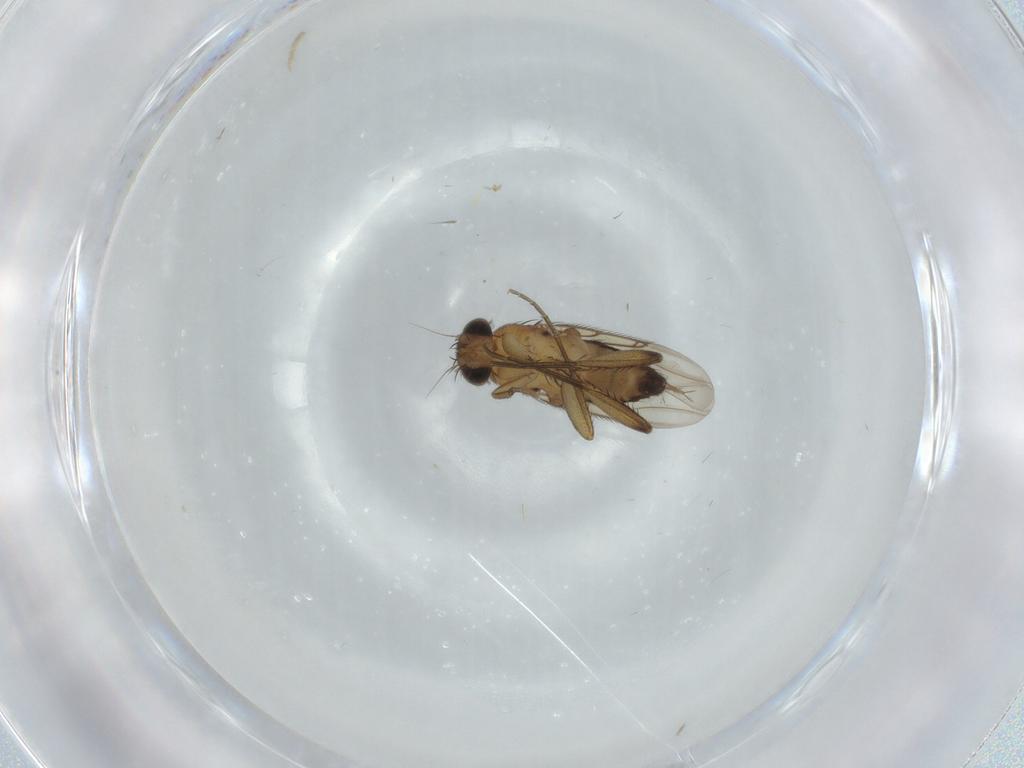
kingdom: Animalia
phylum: Arthropoda
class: Insecta
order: Diptera
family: Phoridae
